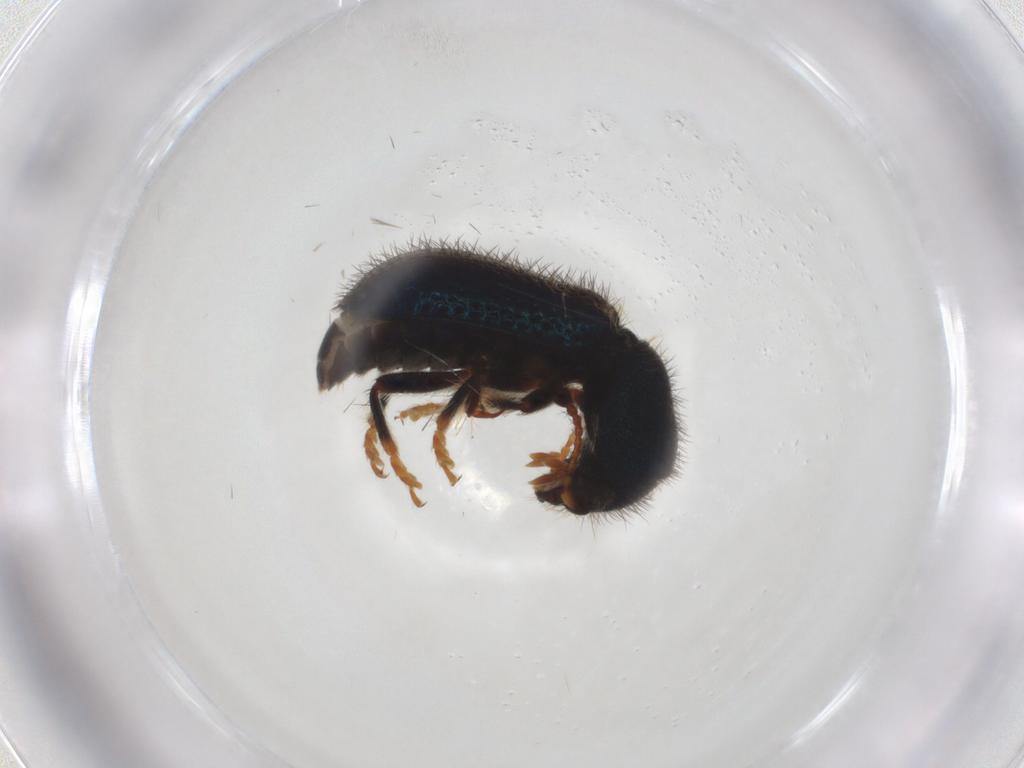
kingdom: Animalia
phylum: Arthropoda
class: Insecta
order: Coleoptera
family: Cleridae
